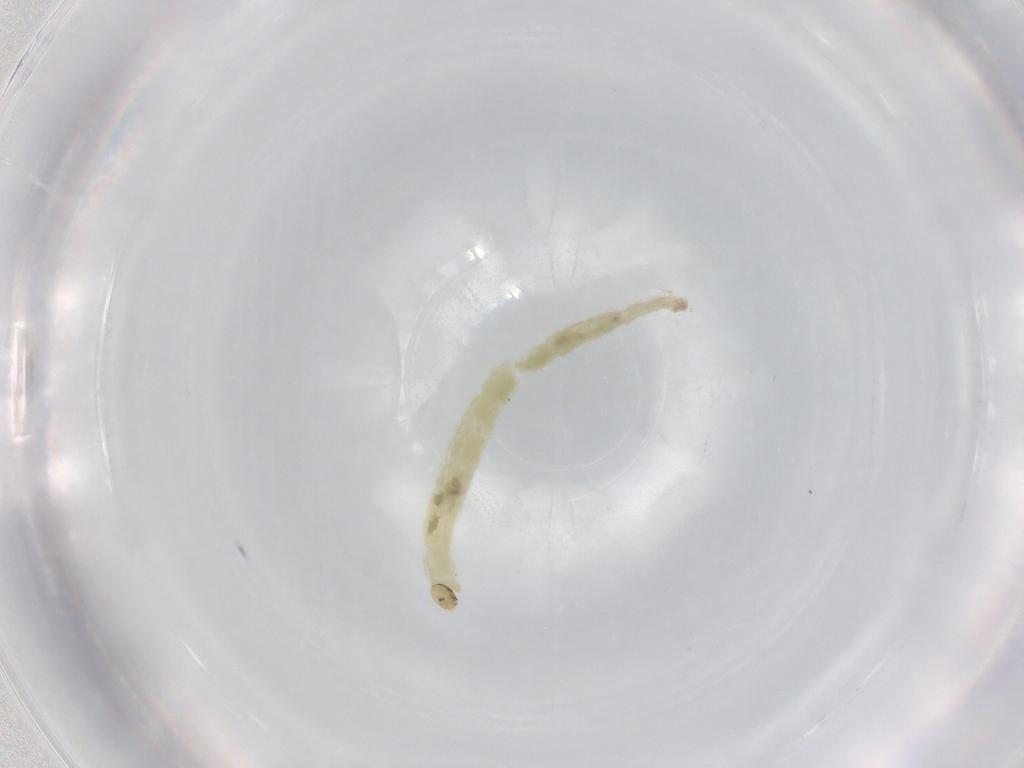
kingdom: Animalia
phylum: Arthropoda
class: Insecta
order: Diptera
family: Chironomidae
